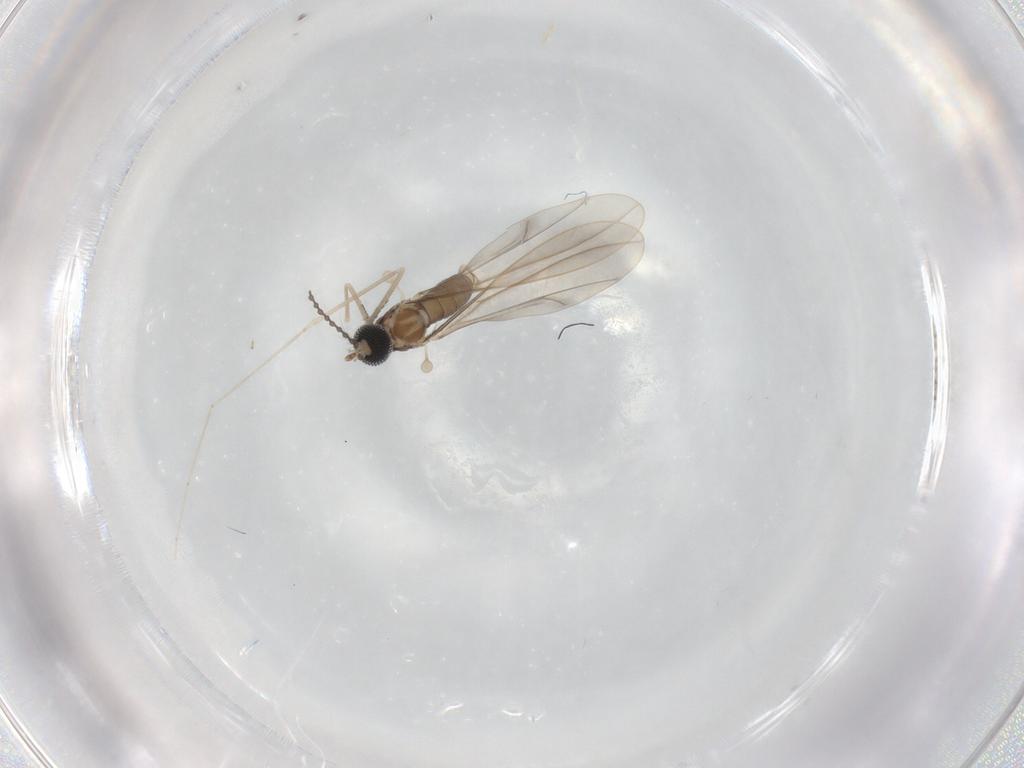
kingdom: Animalia
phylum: Arthropoda
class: Insecta
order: Diptera
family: Cecidomyiidae
